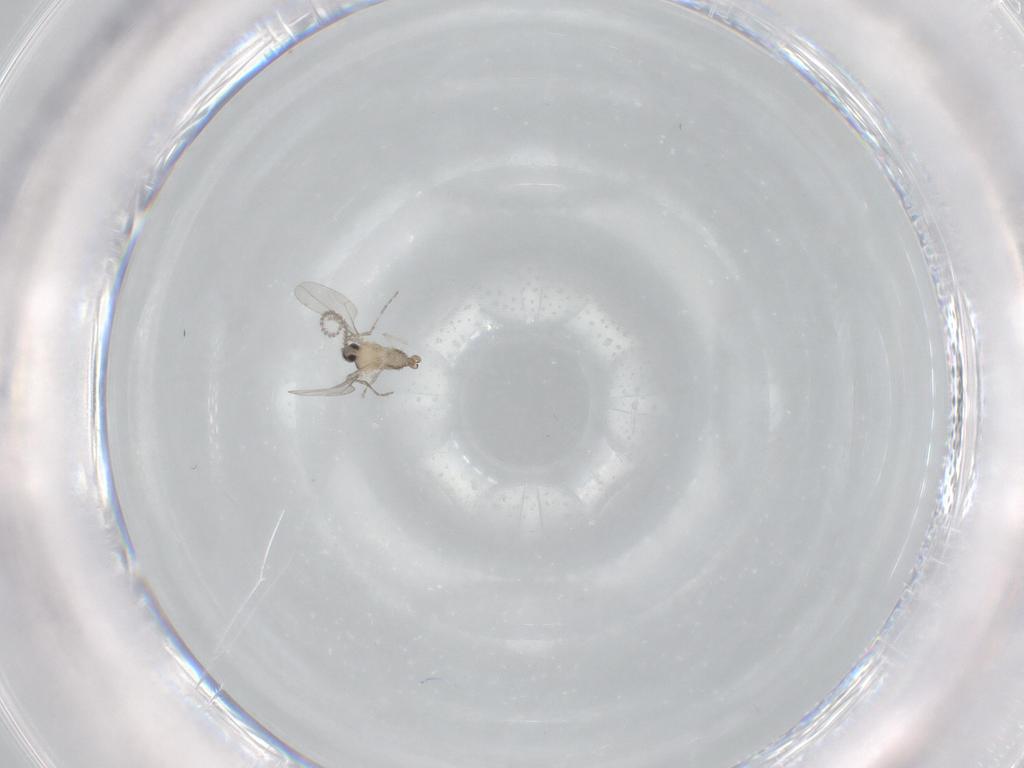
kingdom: Animalia
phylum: Arthropoda
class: Insecta
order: Diptera
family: Cecidomyiidae
